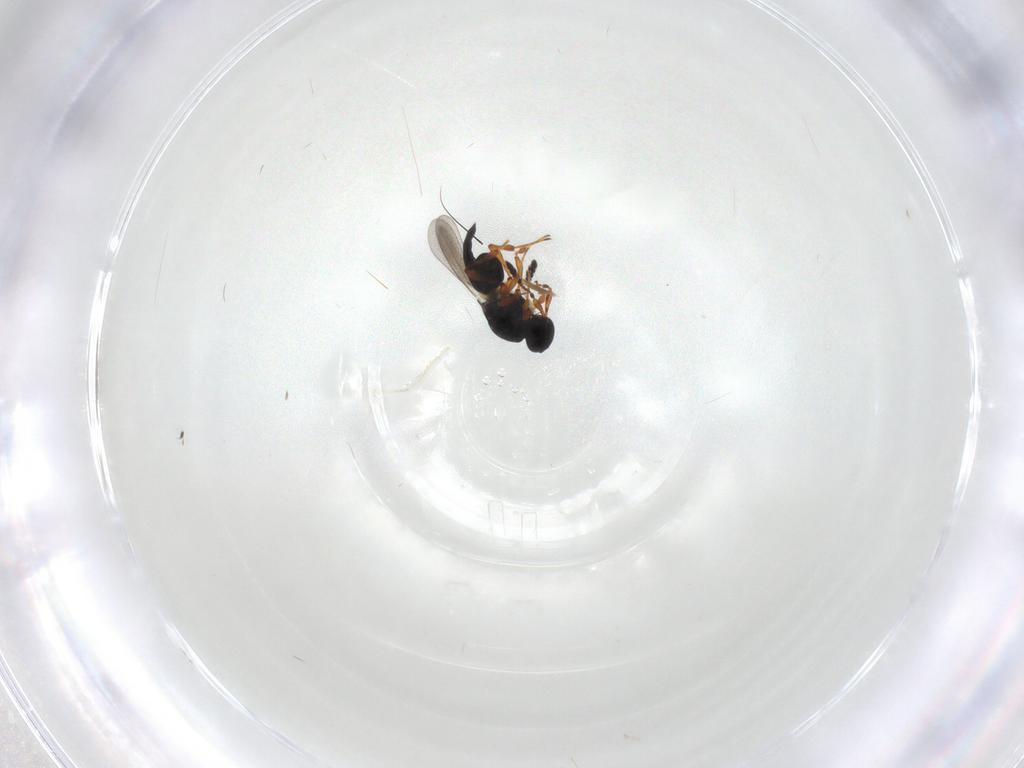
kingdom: Animalia
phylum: Arthropoda
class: Insecta
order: Hymenoptera
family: Platygastridae
